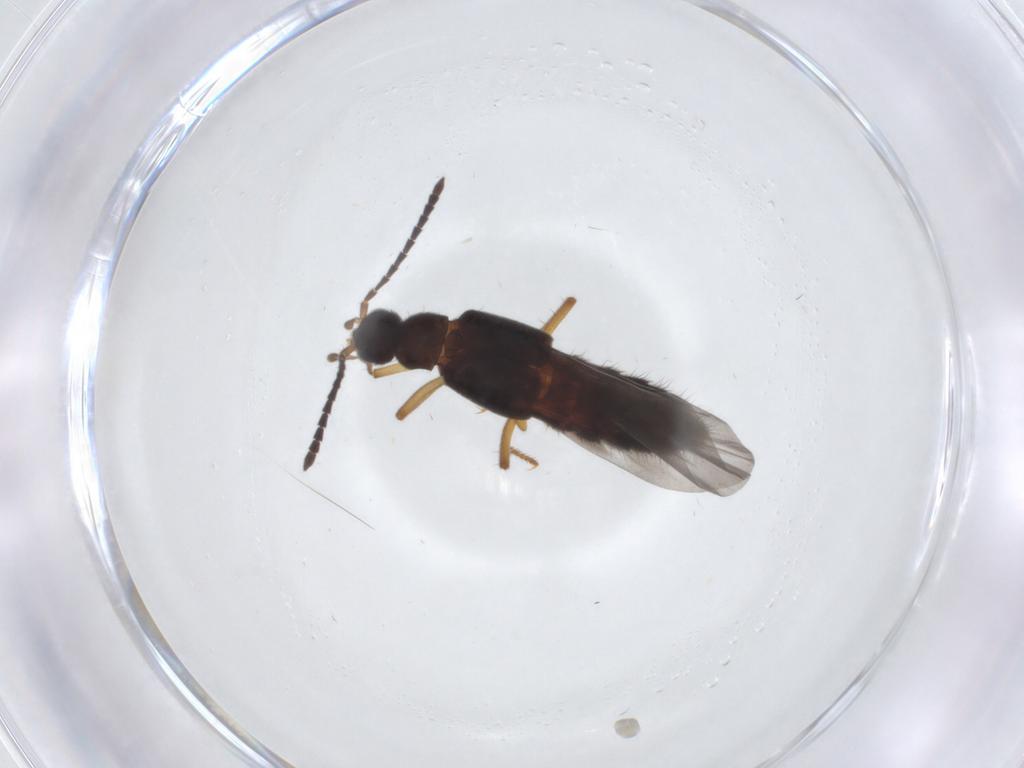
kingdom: Animalia
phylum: Arthropoda
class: Insecta
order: Coleoptera
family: Staphylinidae
